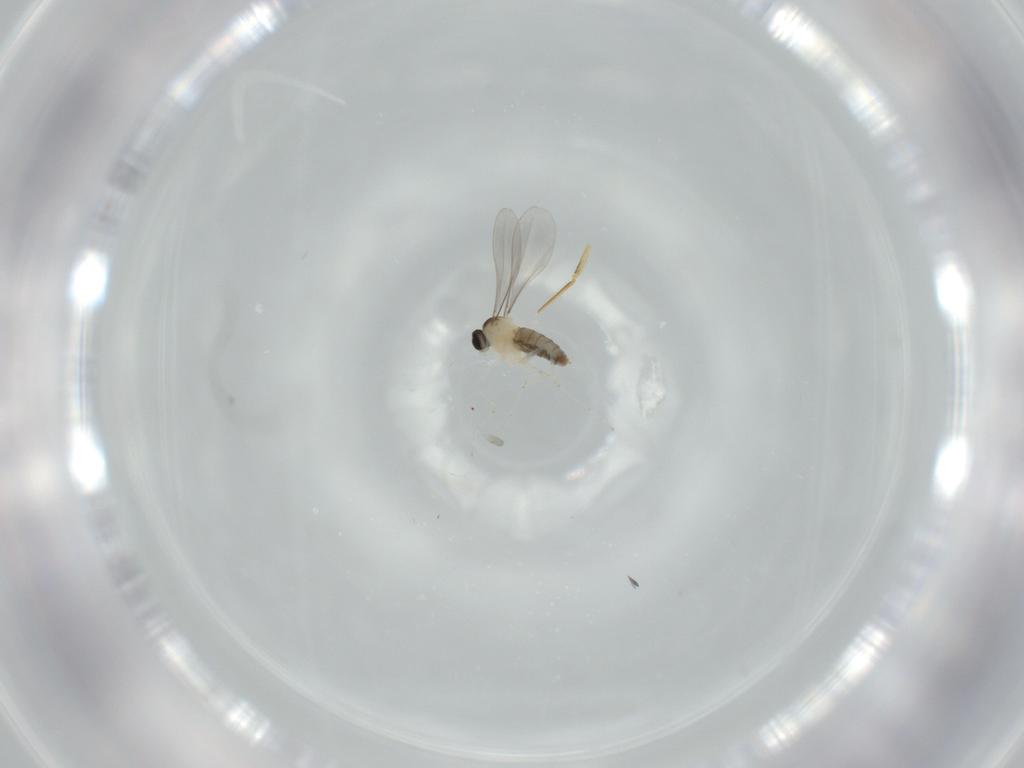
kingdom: Animalia
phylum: Arthropoda
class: Insecta
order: Diptera
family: Cecidomyiidae
